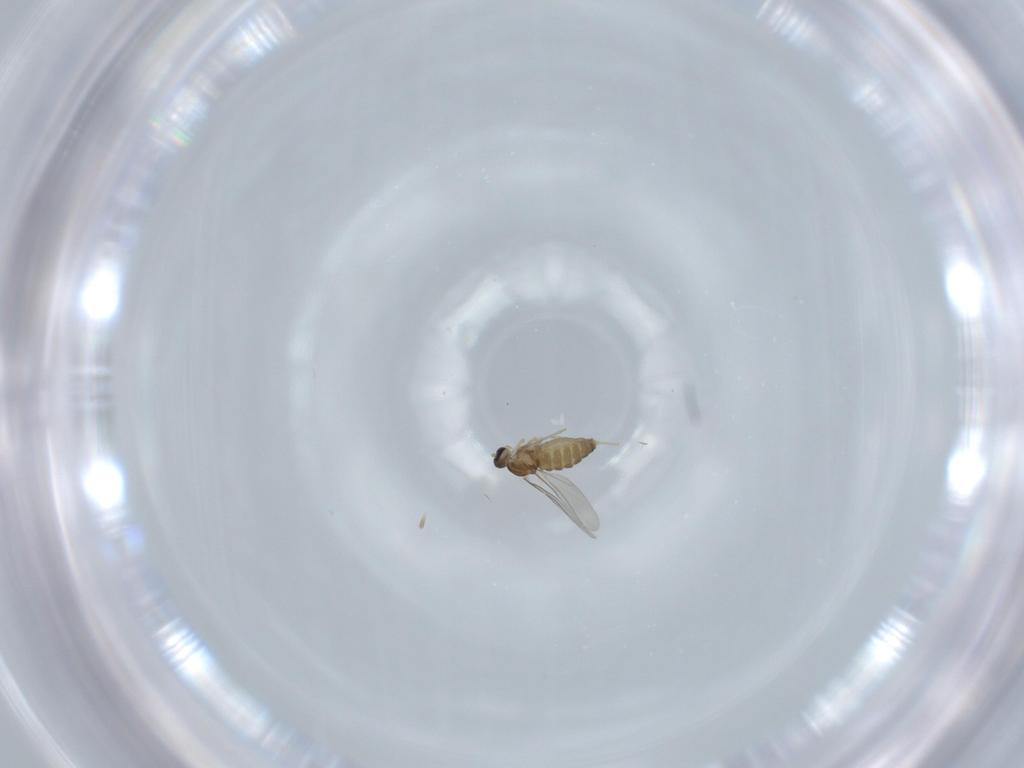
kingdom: Animalia
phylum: Arthropoda
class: Insecta
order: Diptera
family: Cecidomyiidae
